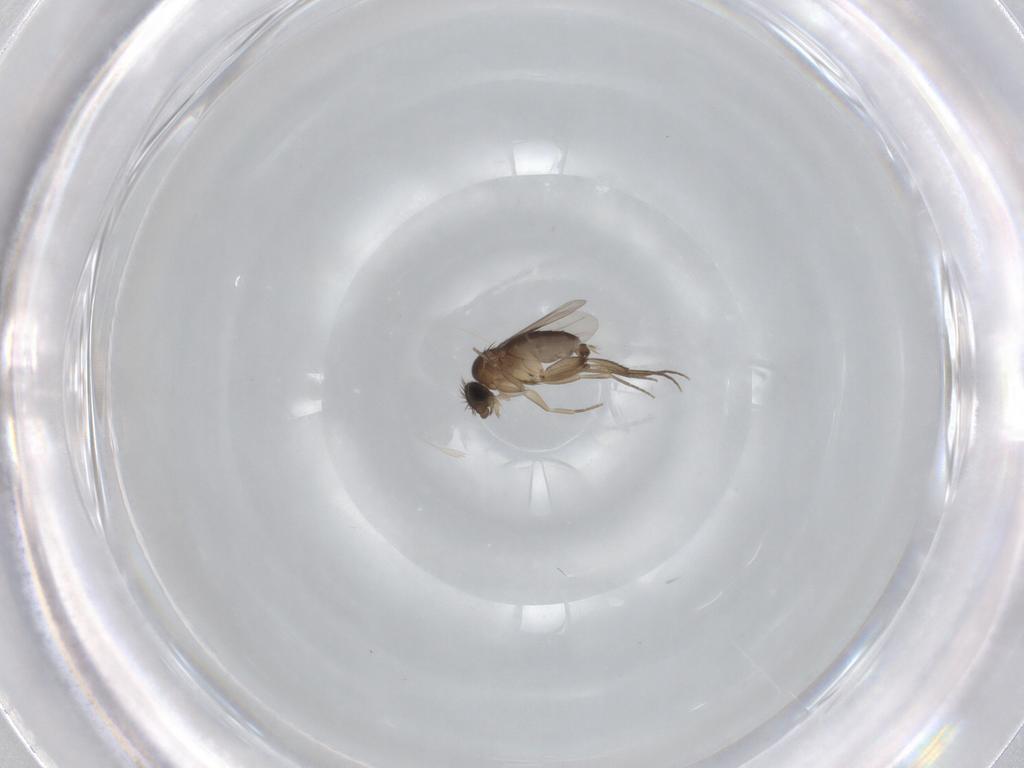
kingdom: Animalia
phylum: Arthropoda
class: Insecta
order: Diptera
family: Phoridae
